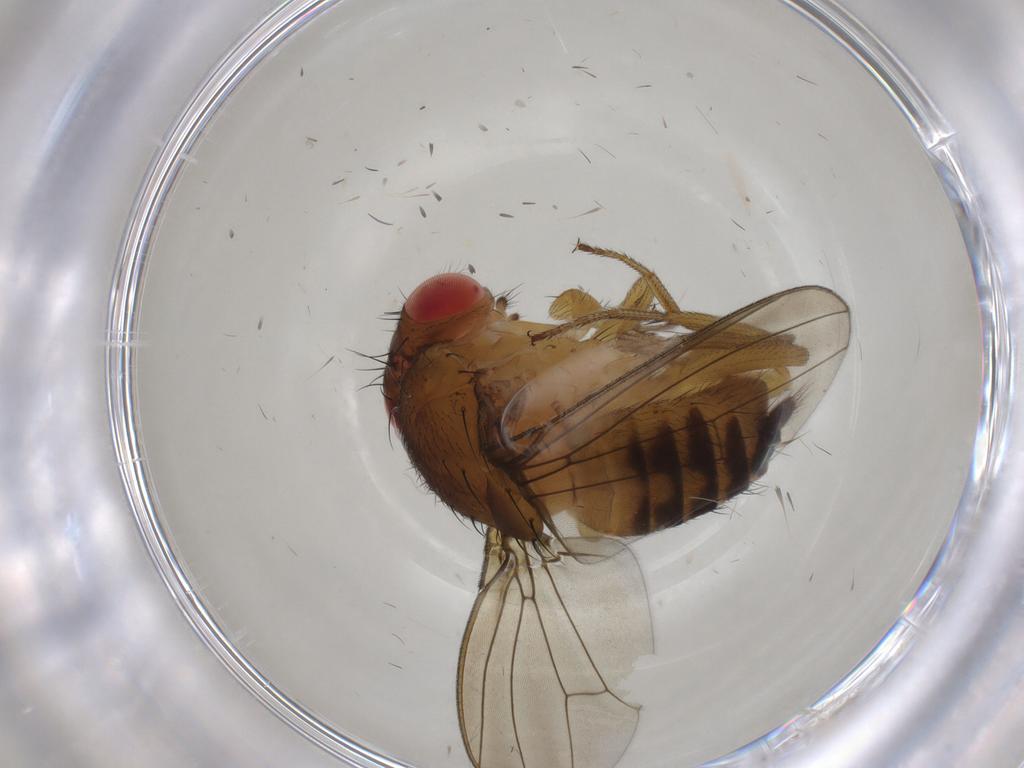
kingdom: Animalia
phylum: Arthropoda
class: Insecta
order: Diptera
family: Drosophilidae
